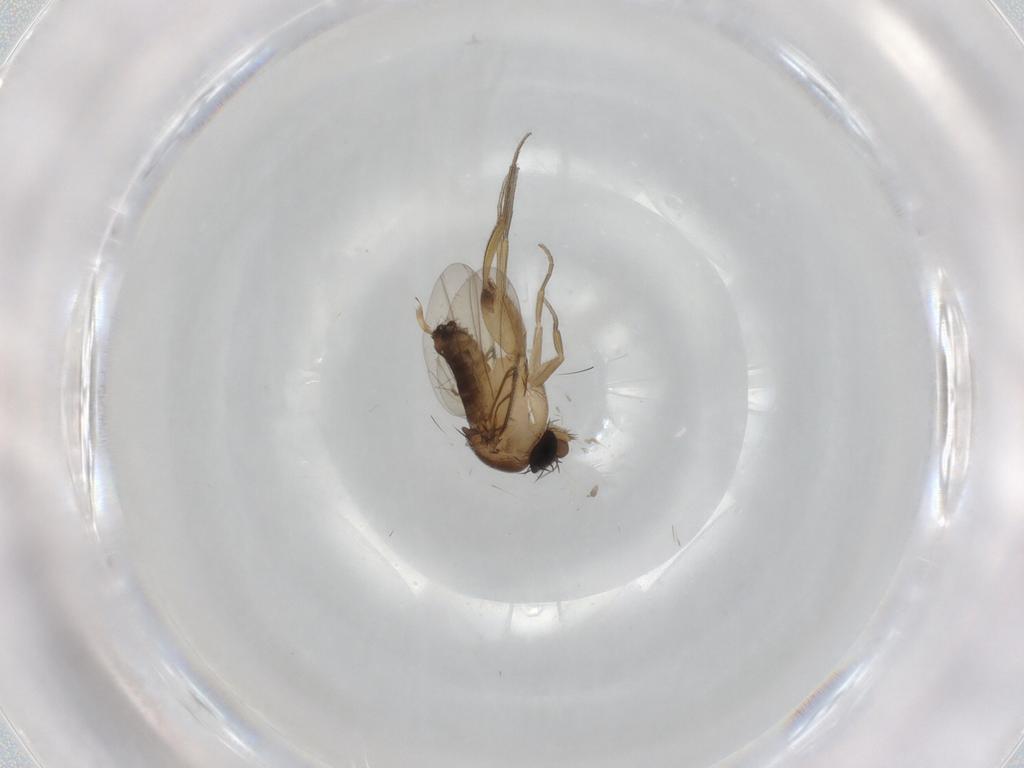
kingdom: Animalia
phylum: Arthropoda
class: Insecta
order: Diptera
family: Phoridae
